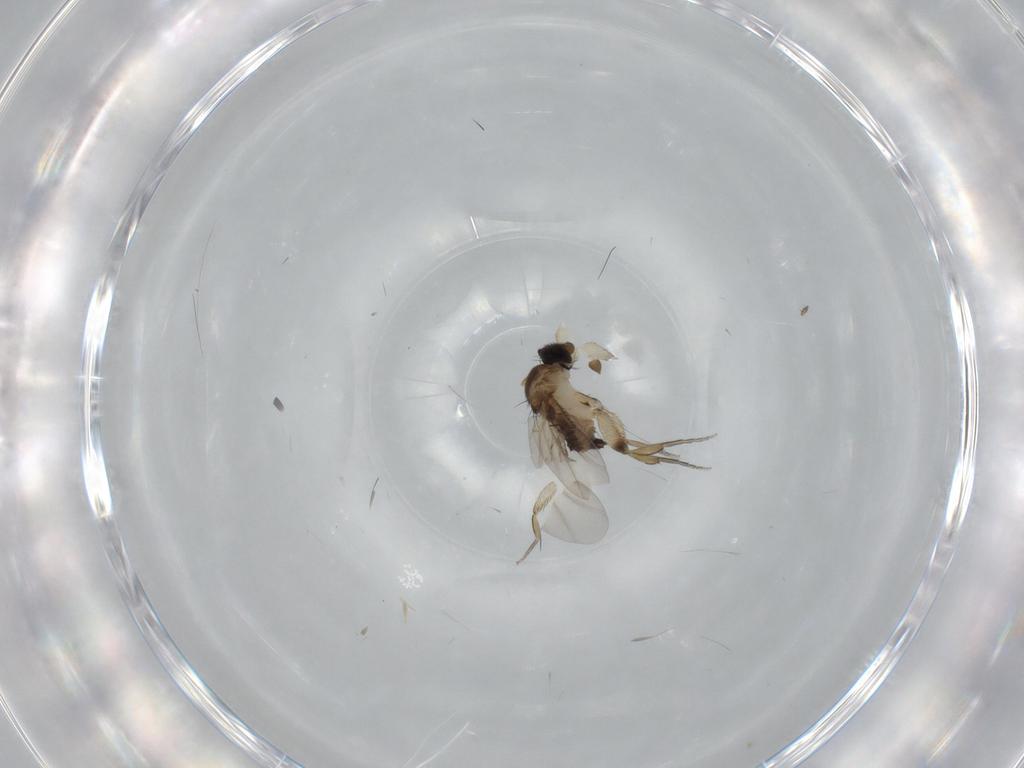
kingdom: Animalia
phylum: Arthropoda
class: Insecta
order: Diptera
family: Phoridae
